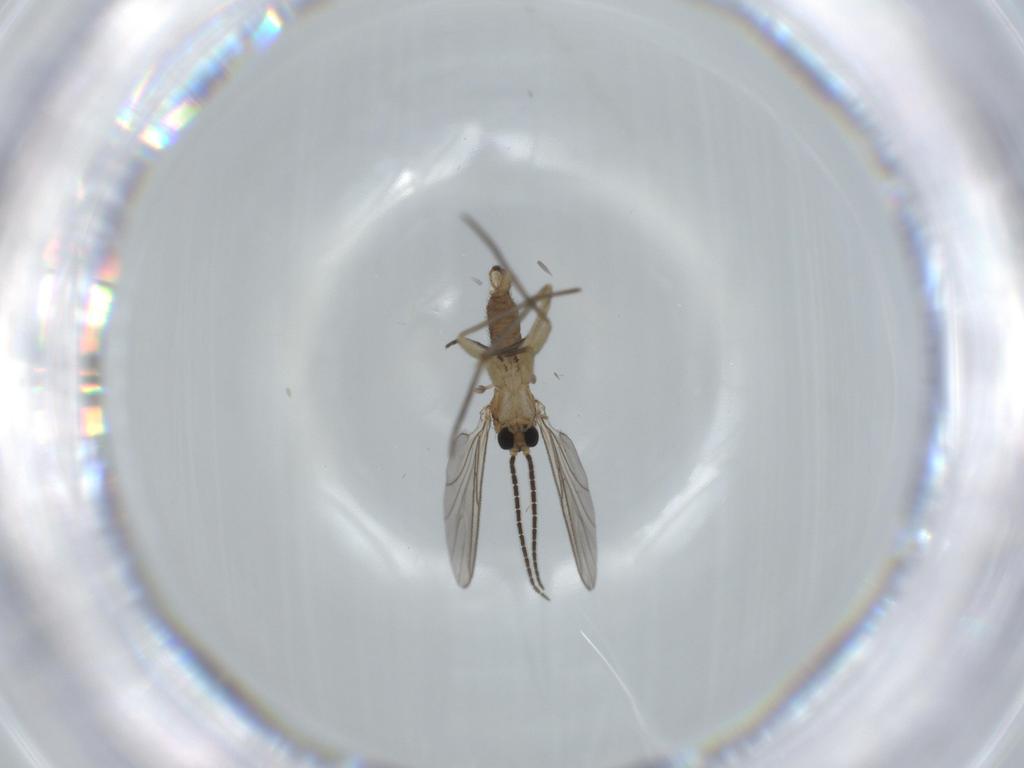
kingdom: Animalia
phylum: Arthropoda
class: Insecta
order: Diptera
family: Sciaridae
